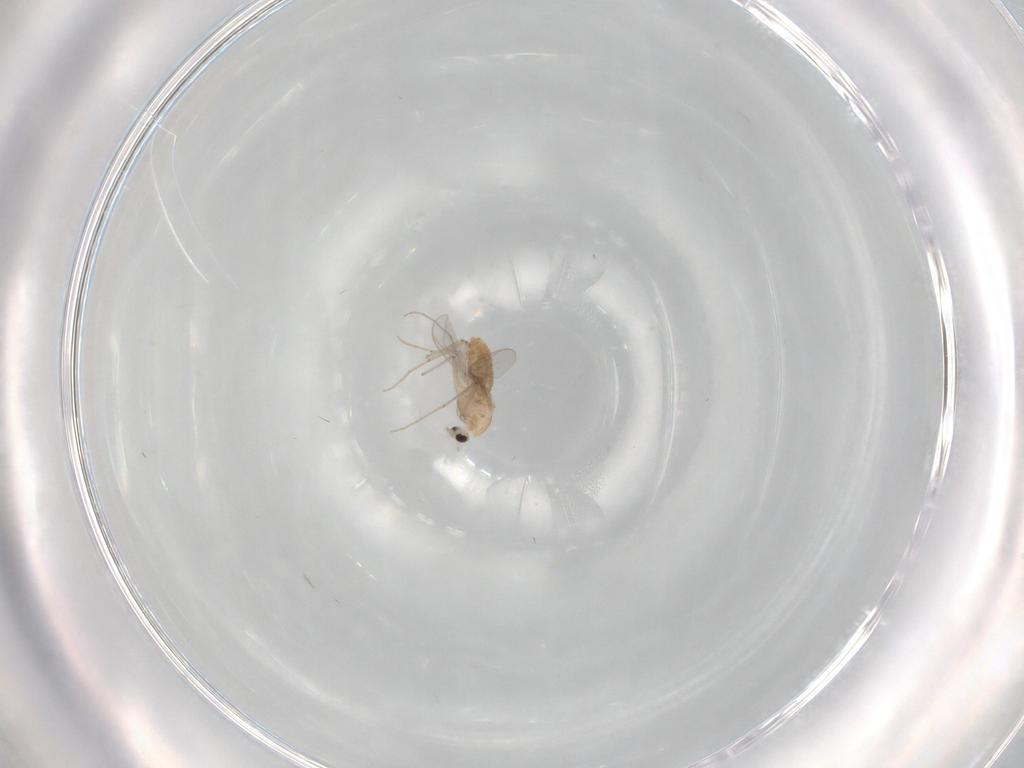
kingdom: Animalia
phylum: Arthropoda
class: Insecta
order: Diptera
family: Chironomidae
